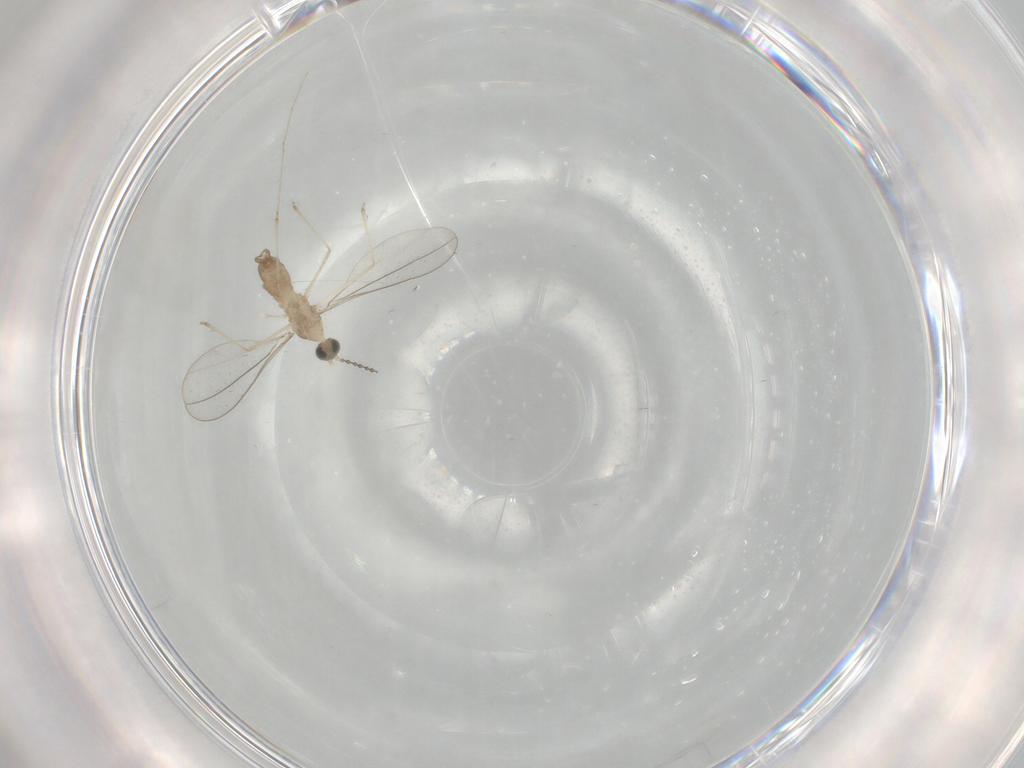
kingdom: Animalia
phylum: Arthropoda
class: Insecta
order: Diptera
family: Cecidomyiidae
